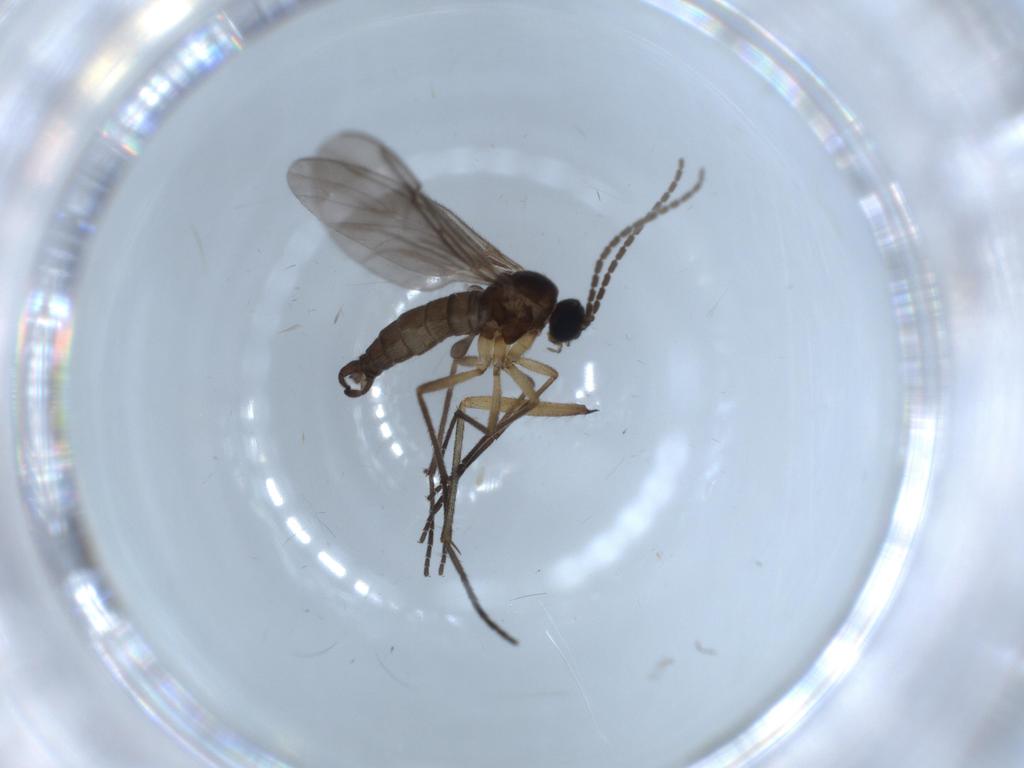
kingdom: Animalia
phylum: Arthropoda
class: Insecta
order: Diptera
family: Sciaridae
